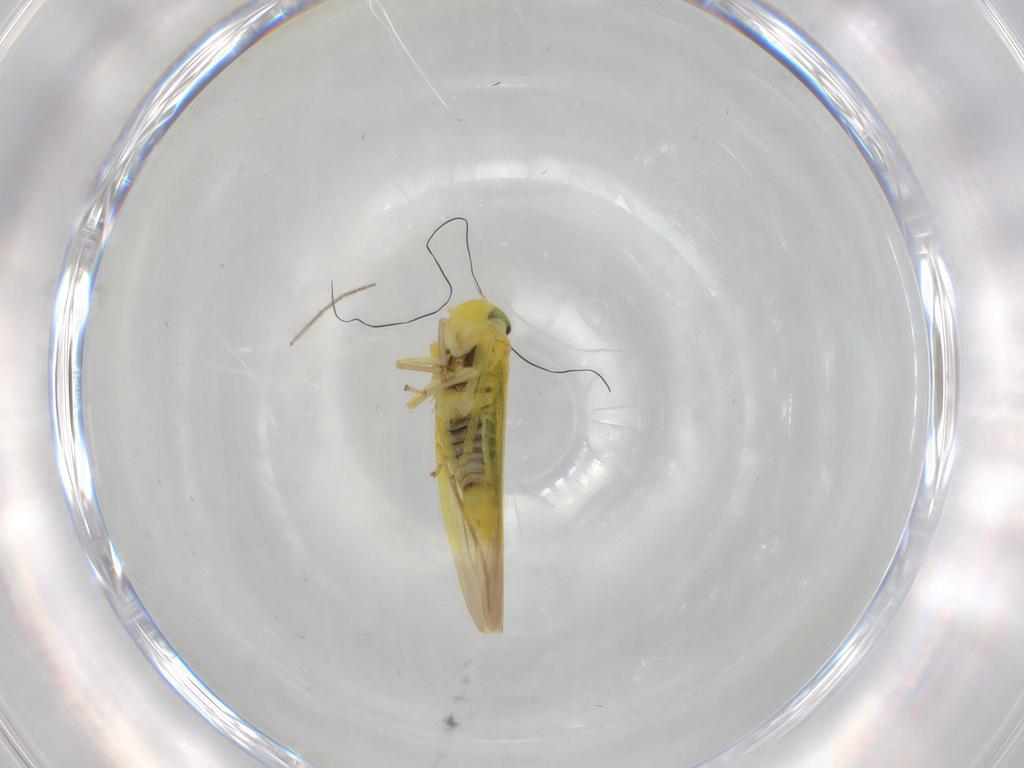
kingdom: Animalia
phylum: Arthropoda
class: Insecta
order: Hemiptera
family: Cicadellidae
